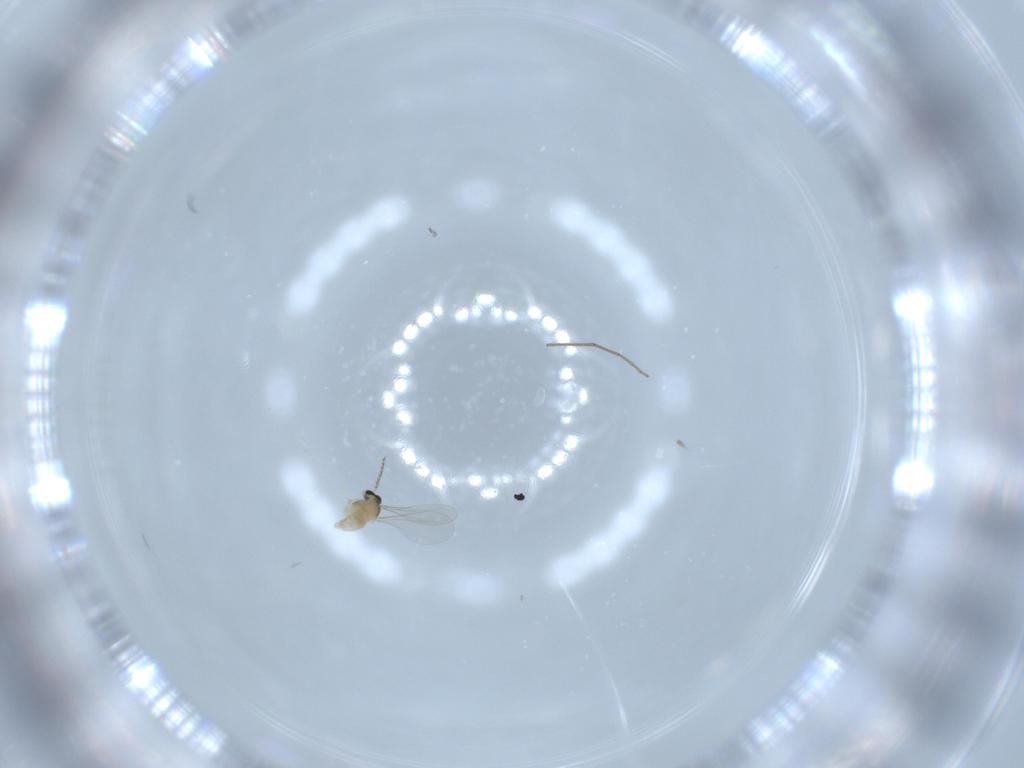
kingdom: Animalia
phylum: Arthropoda
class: Insecta
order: Diptera
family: Cecidomyiidae
